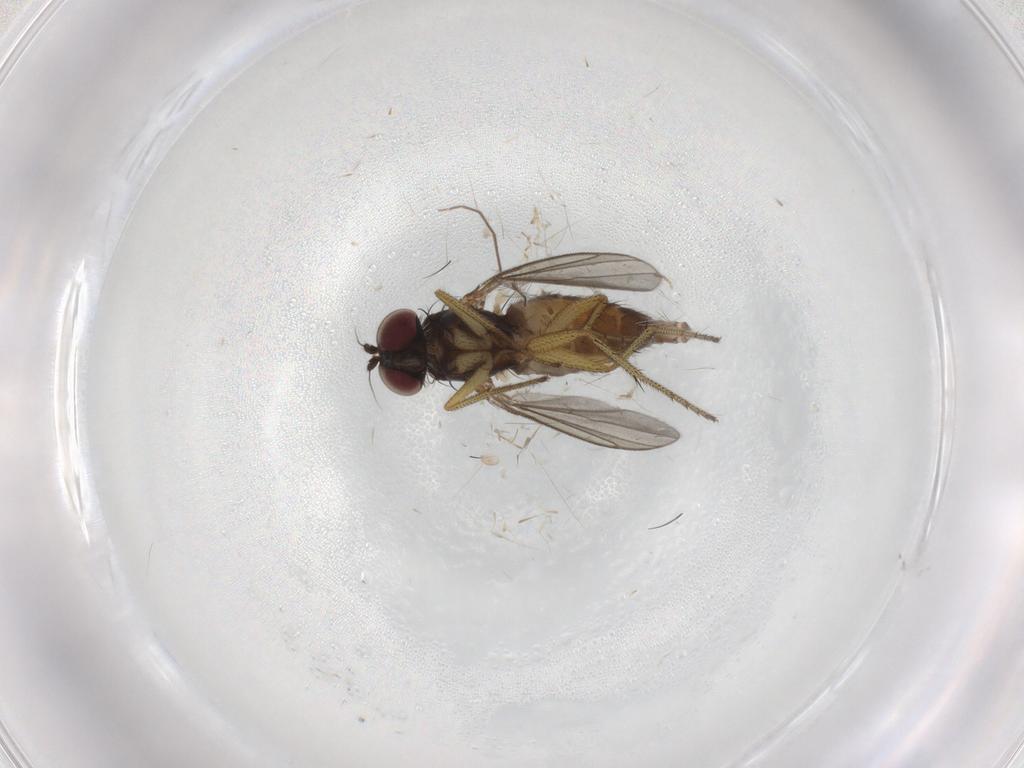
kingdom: Animalia
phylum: Arthropoda
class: Insecta
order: Diptera
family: Dolichopodidae
